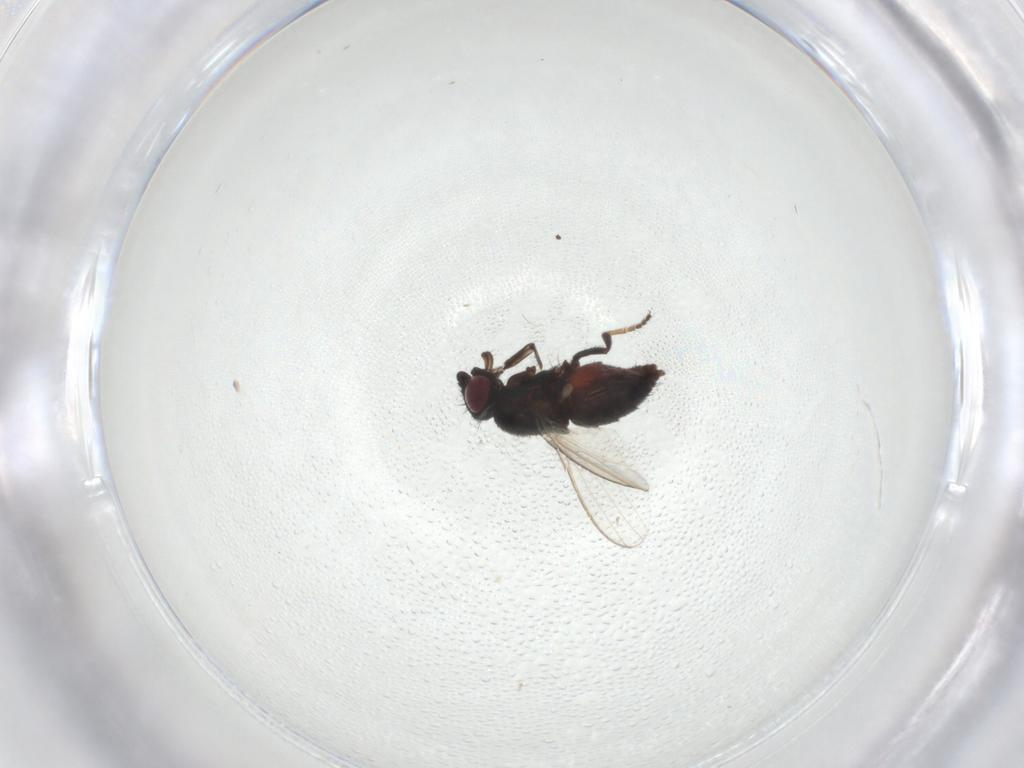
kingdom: Animalia
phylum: Arthropoda
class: Insecta
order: Diptera
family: Milichiidae
